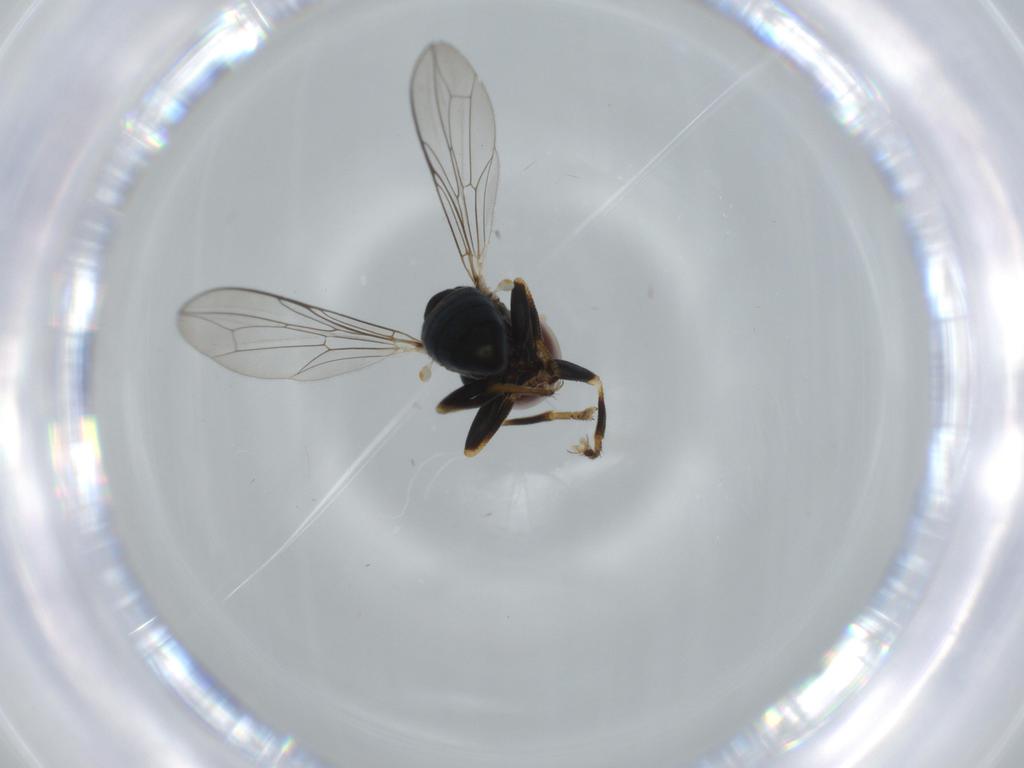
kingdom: Animalia
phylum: Arthropoda
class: Insecta
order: Diptera
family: Pipunculidae
